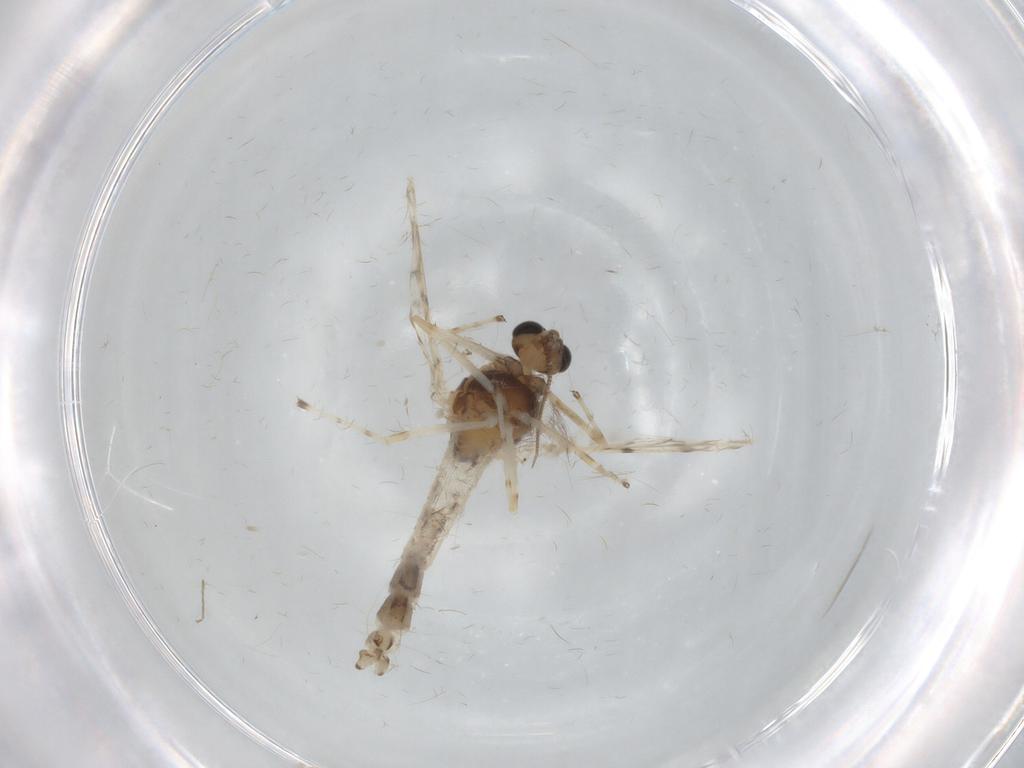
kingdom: Animalia
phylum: Arthropoda
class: Insecta
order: Diptera
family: Chironomidae
